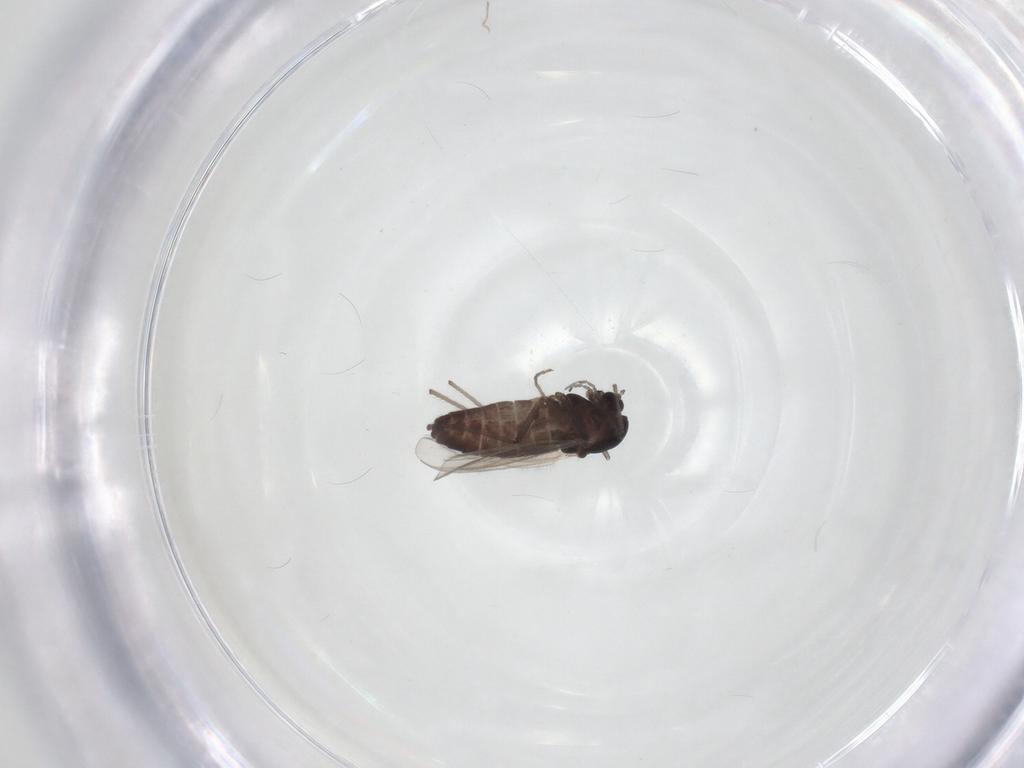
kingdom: Animalia
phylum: Arthropoda
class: Insecta
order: Diptera
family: Chironomidae
